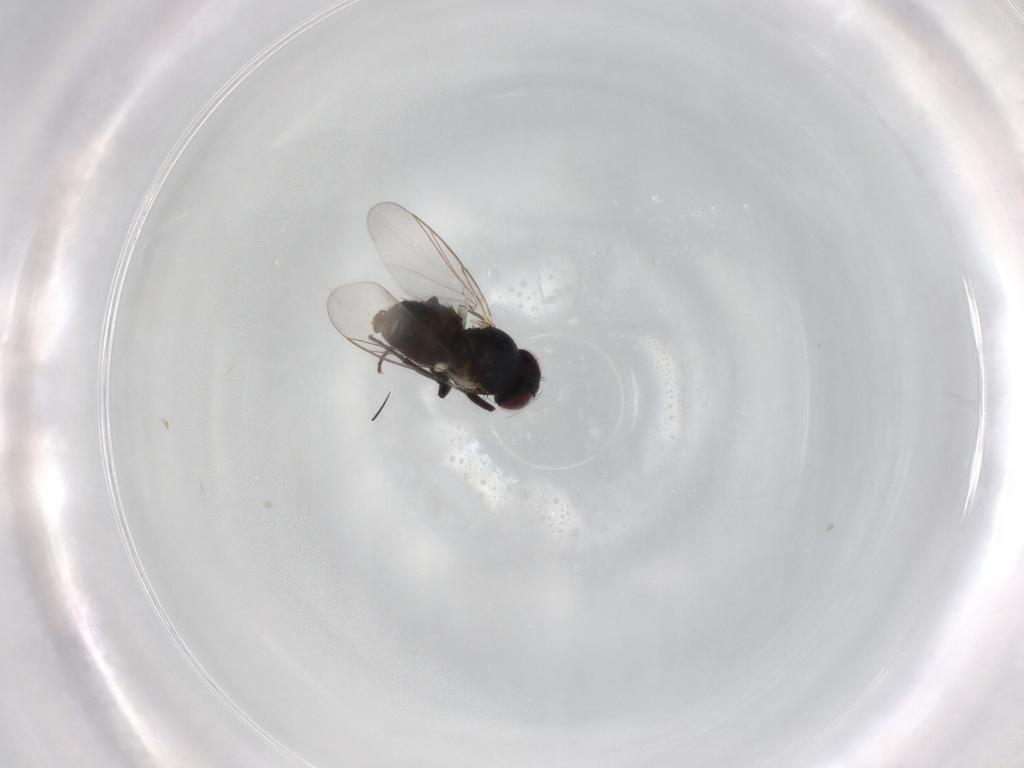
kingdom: Animalia
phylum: Arthropoda
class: Insecta
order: Diptera
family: Agromyzidae
